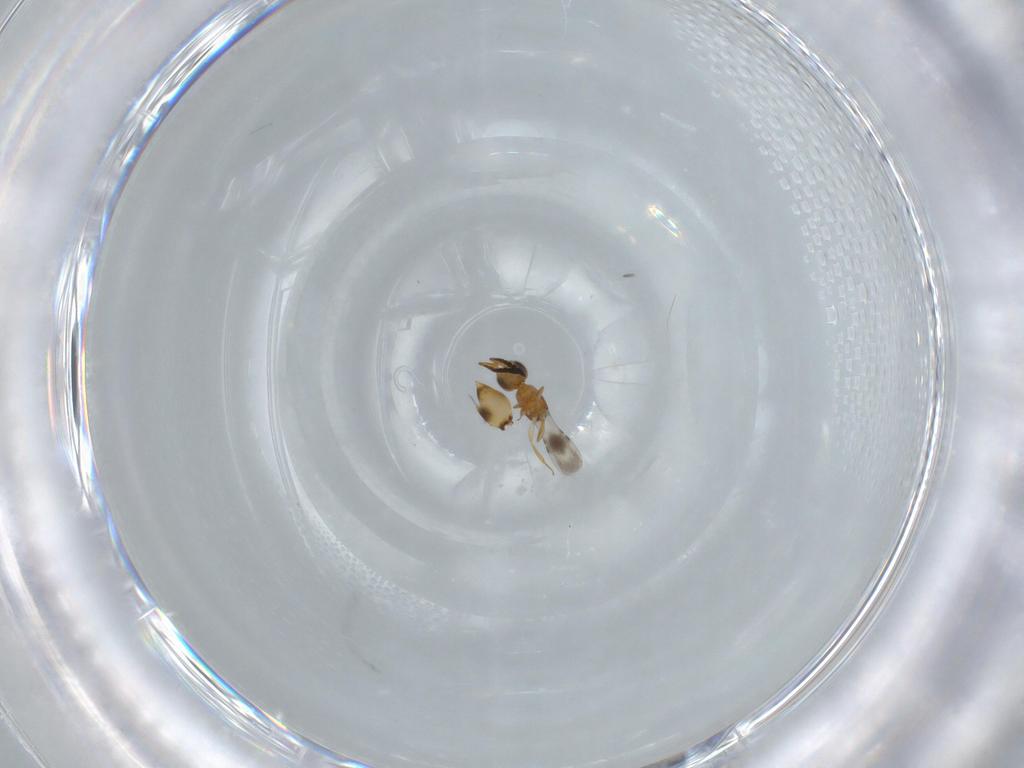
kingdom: Animalia
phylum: Arthropoda
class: Insecta
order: Hymenoptera
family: Ceraphronidae
